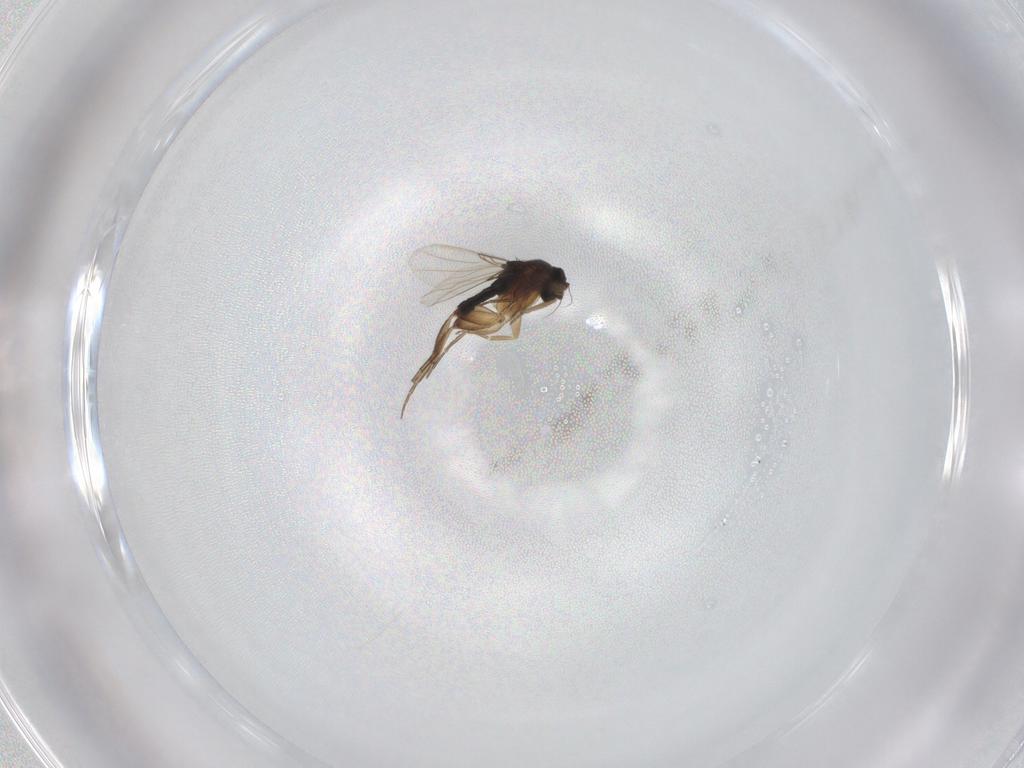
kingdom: Animalia
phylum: Arthropoda
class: Insecta
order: Diptera
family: Phoridae
